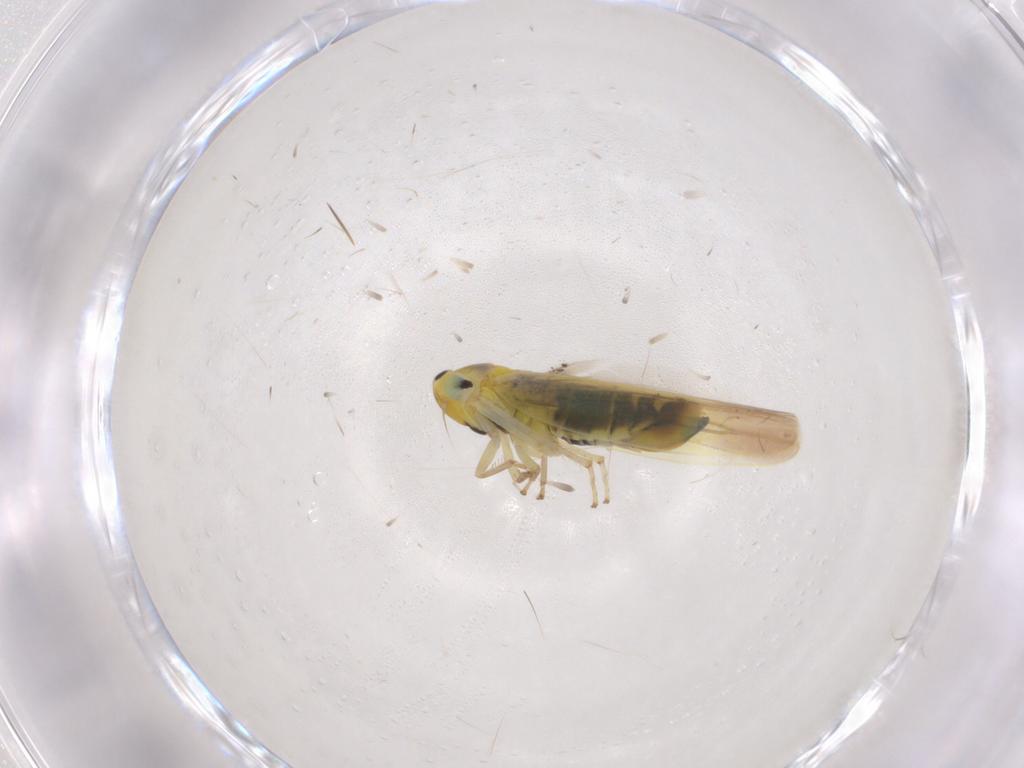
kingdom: Animalia
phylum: Arthropoda
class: Insecta
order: Hemiptera
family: Cicadellidae
